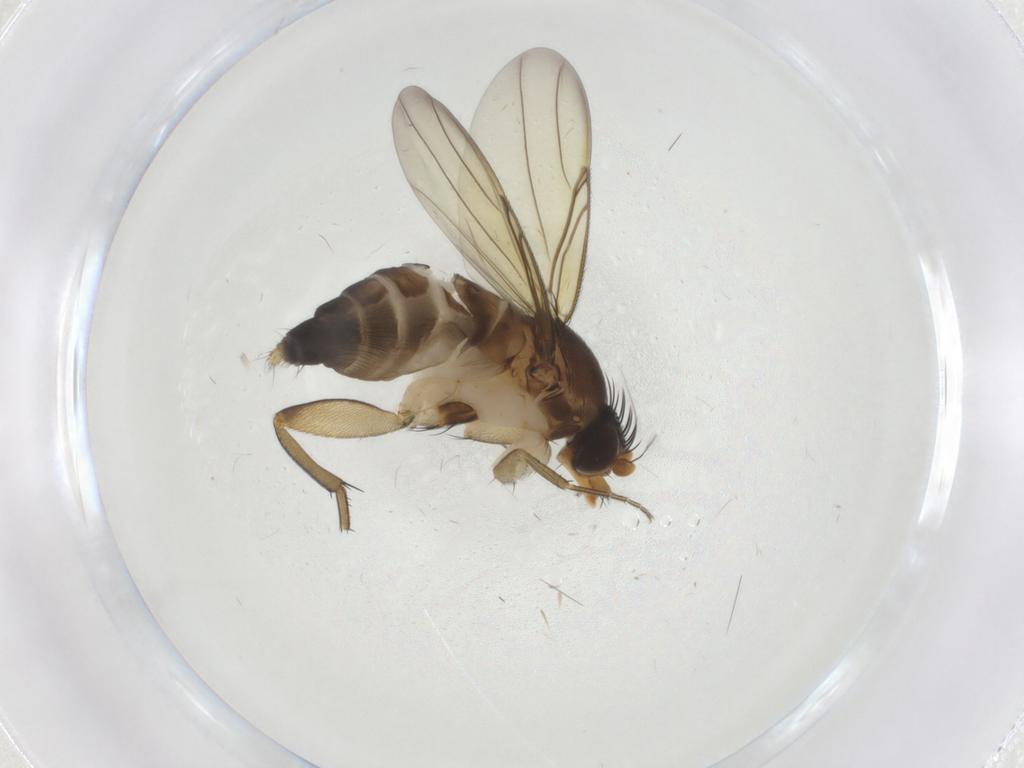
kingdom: Animalia
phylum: Arthropoda
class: Insecta
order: Diptera
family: Phoridae
